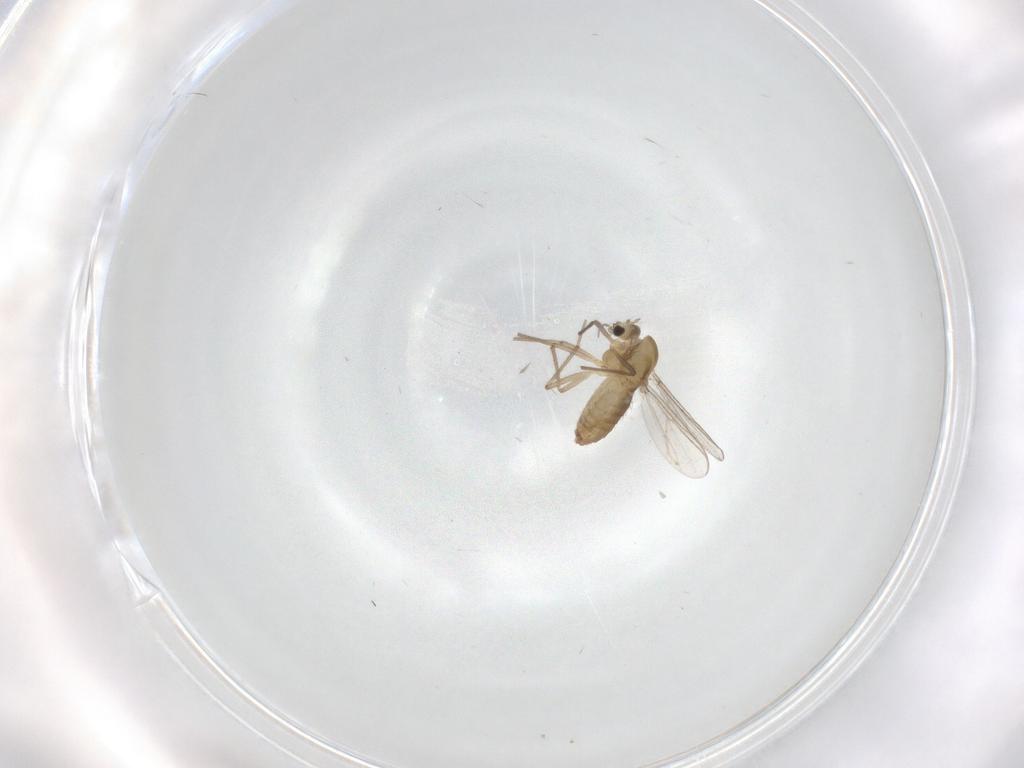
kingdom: Animalia
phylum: Arthropoda
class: Insecta
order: Diptera
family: Chironomidae
